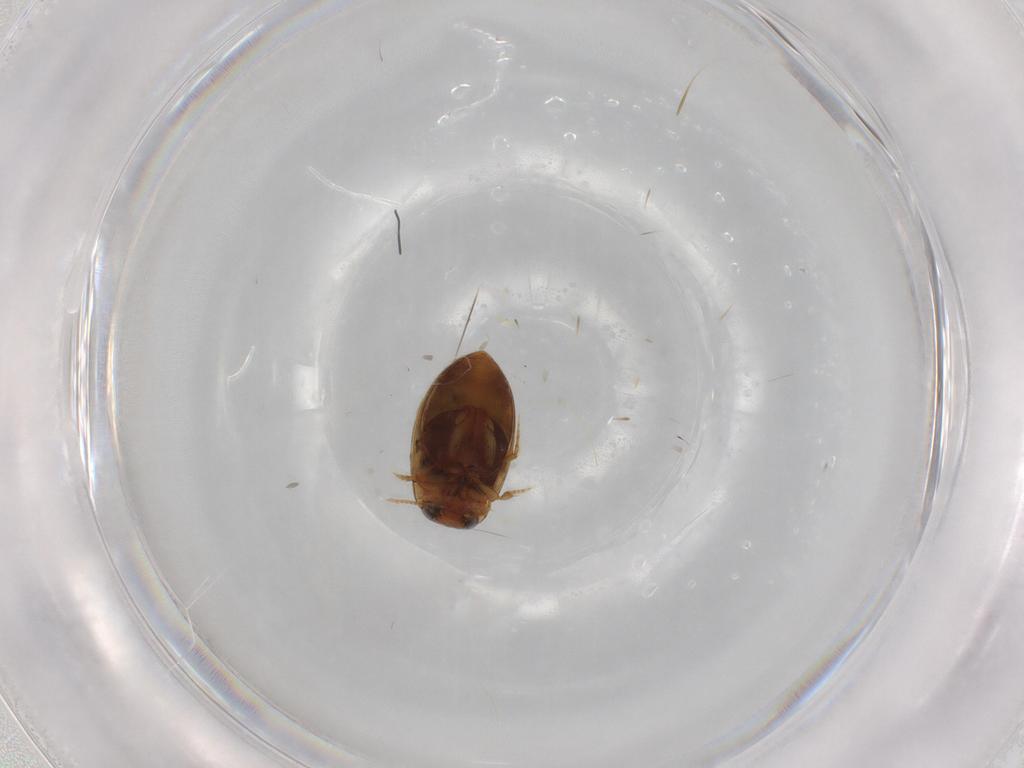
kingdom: Animalia
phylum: Arthropoda
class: Insecta
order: Coleoptera
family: Dytiscidae
